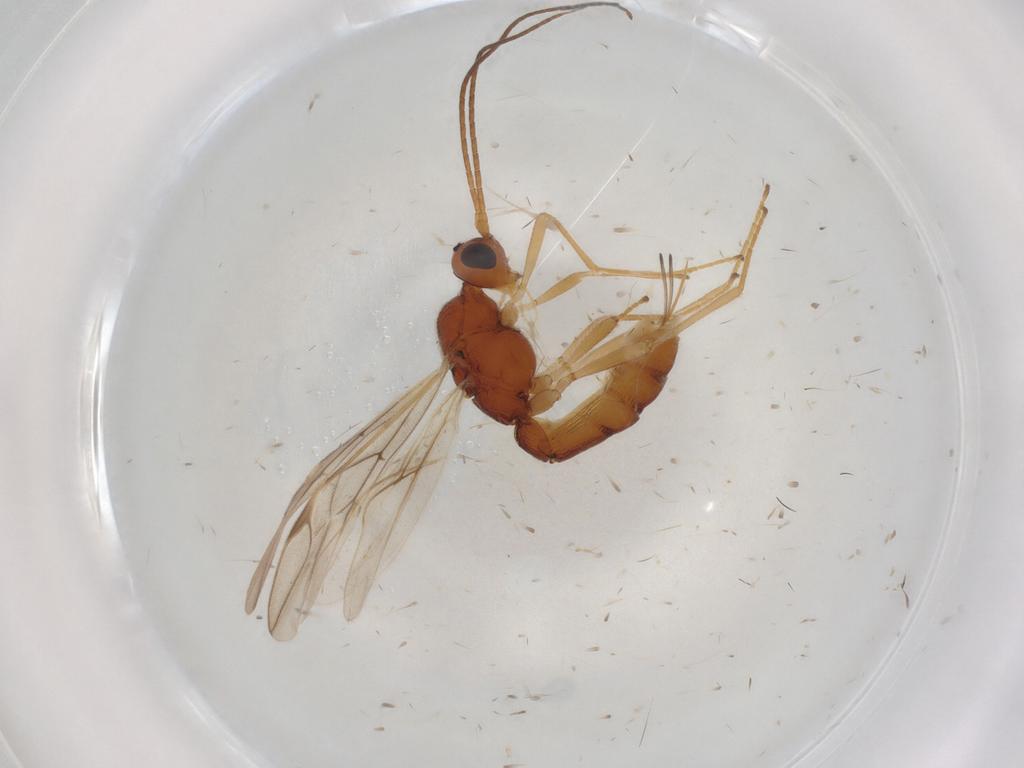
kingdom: Animalia
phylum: Arthropoda
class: Insecta
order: Hymenoptera
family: Braconidae
